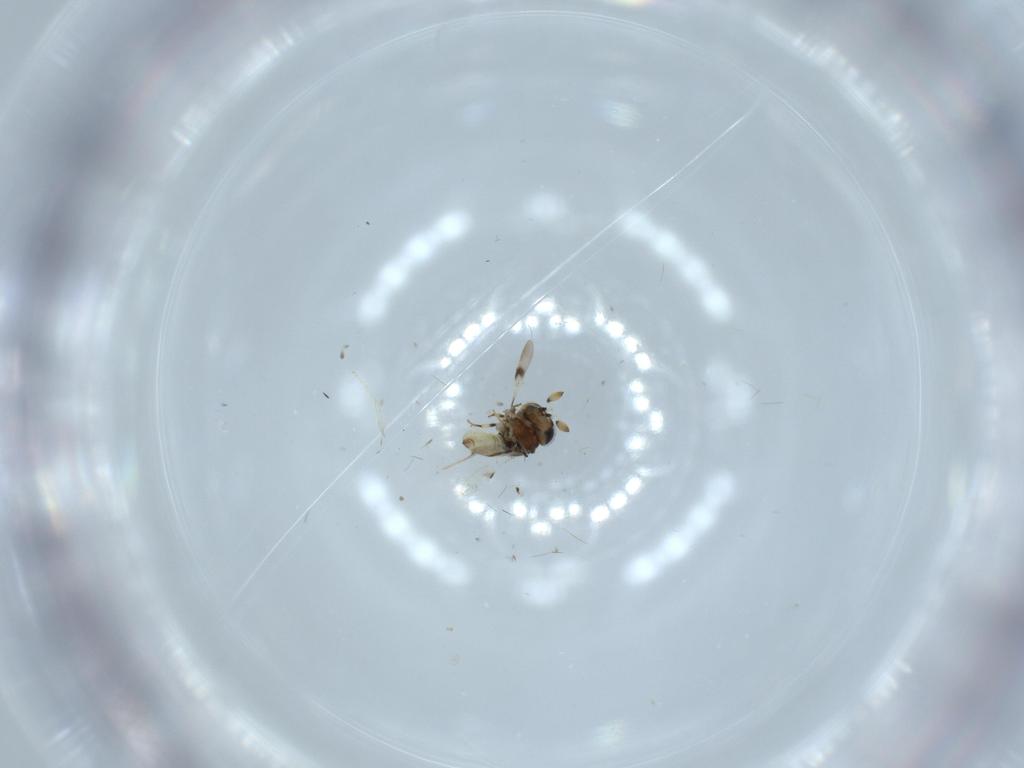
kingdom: Animalia
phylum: Arthropoda
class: Insecta
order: Hymenoptera
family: Scelionidae
